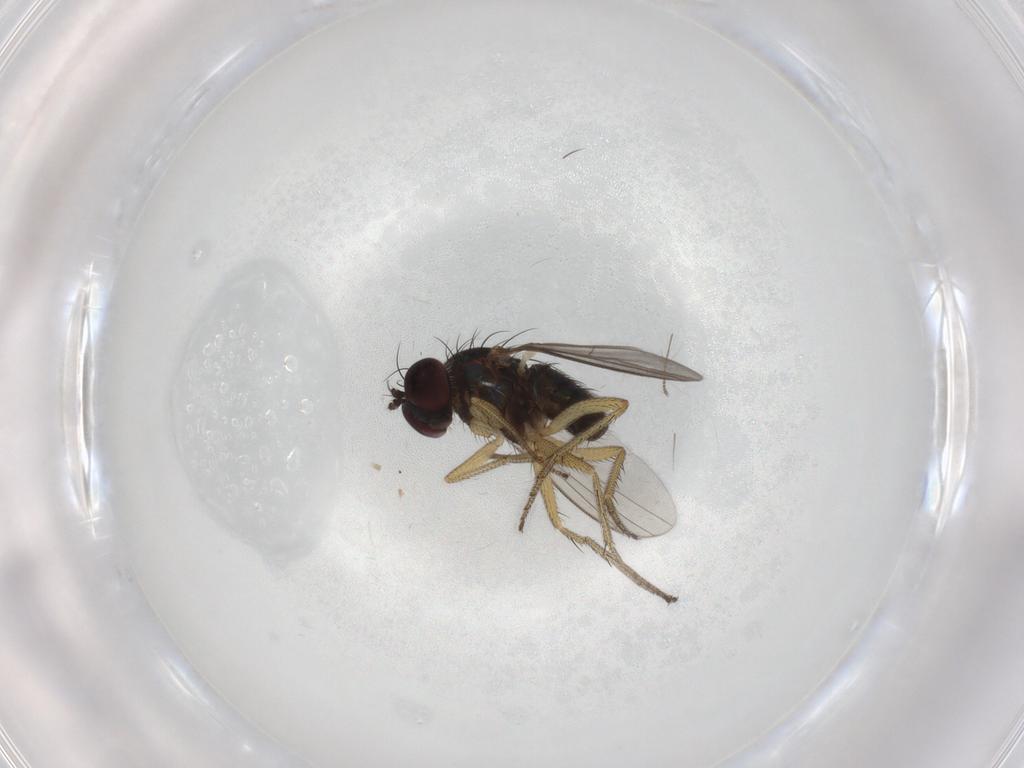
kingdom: Animalia
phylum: Arthropoda
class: Insecta
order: Diptera
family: Dolichopodidae
